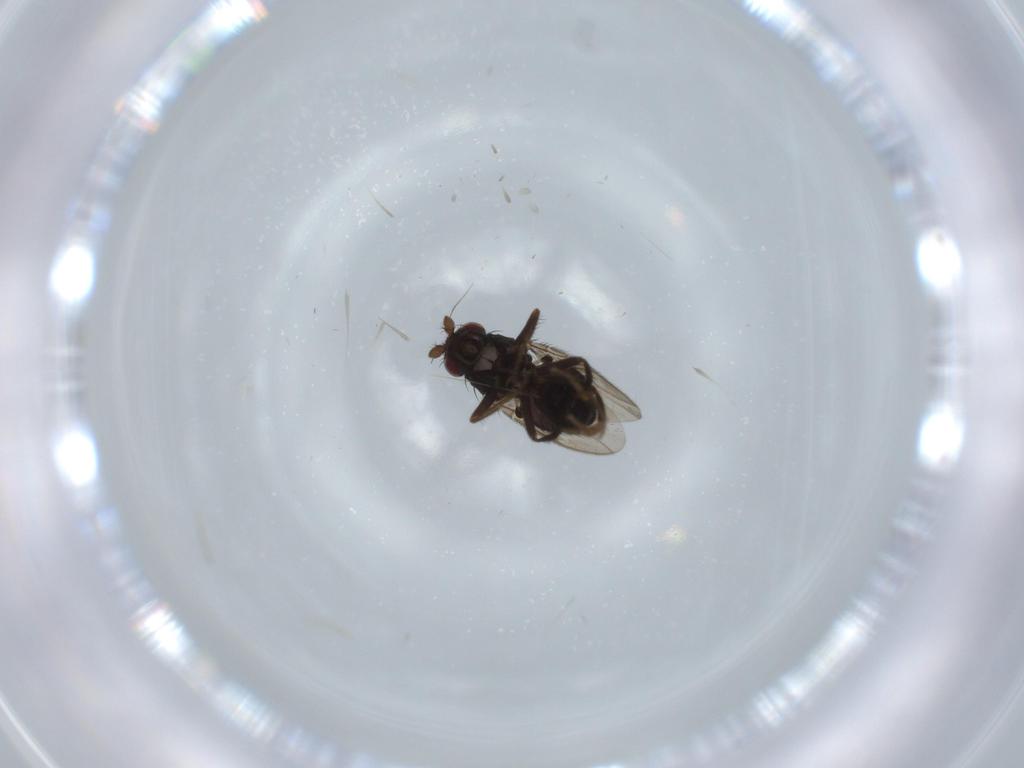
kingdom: Animalia
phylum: Arthropoda
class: Insecta
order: Diptera
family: Sphaeroceridae
